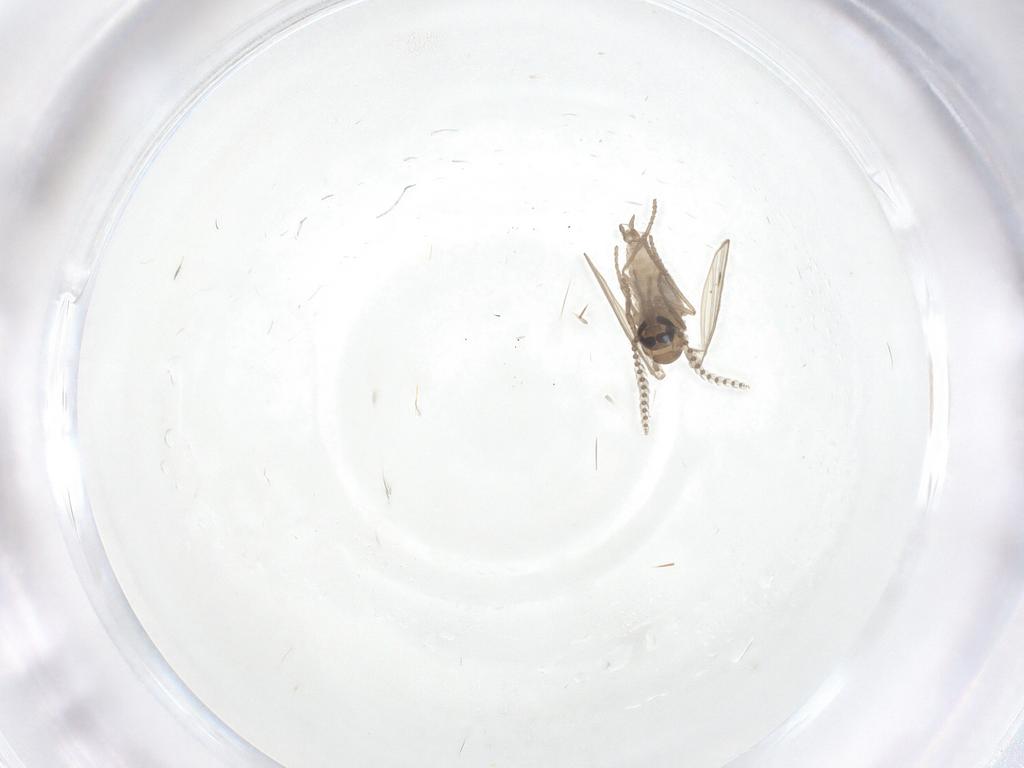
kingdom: Animalia
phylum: Arthropoda
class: Insecta
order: Diptera
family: Psychodidae
